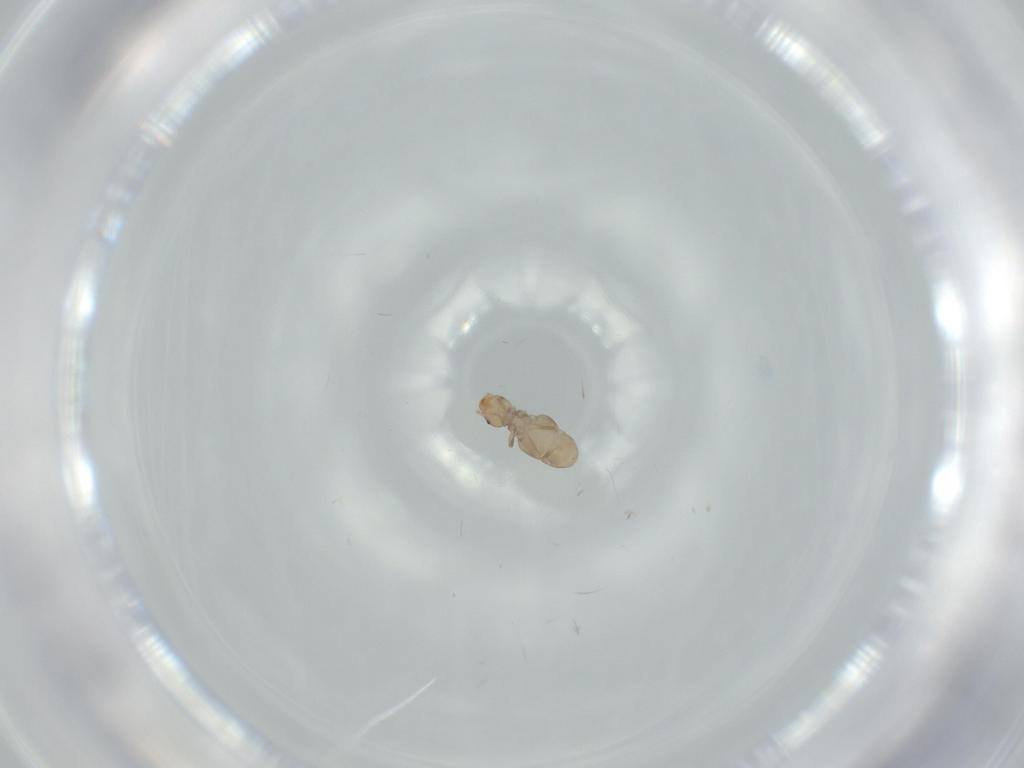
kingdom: Animalia
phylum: Arthropoda
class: Insecta
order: Psocodea
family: Liposcelididae
